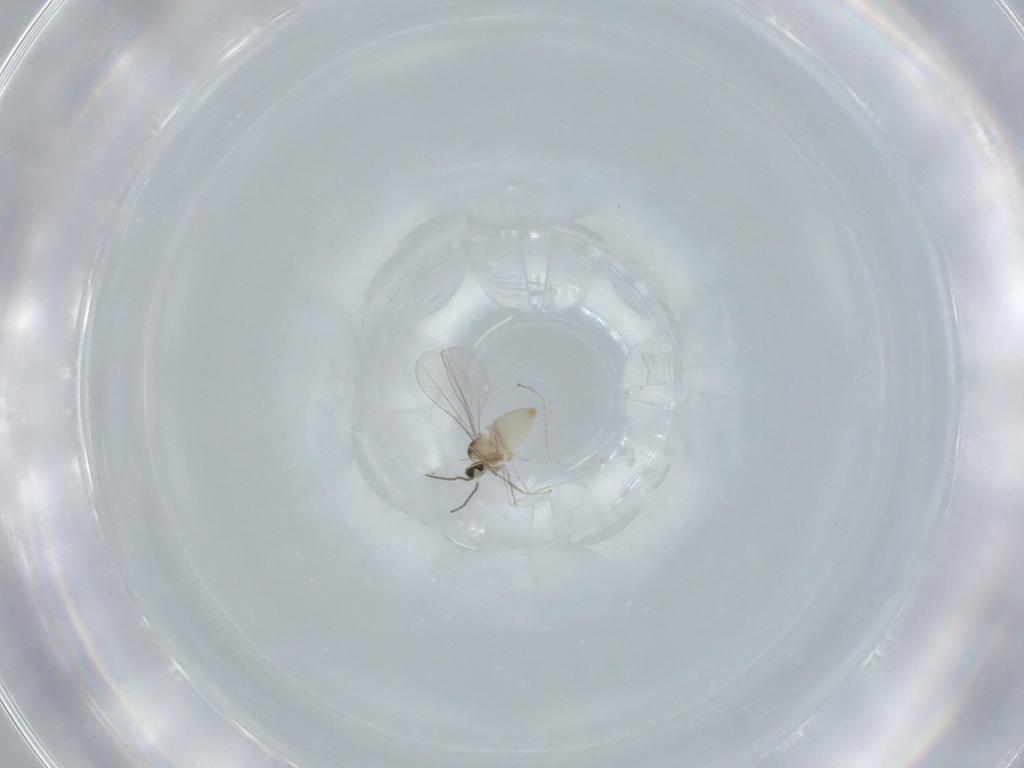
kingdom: Animalia
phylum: Arthropoda
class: Insecta
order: Diptera
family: Cecidomyiidae
